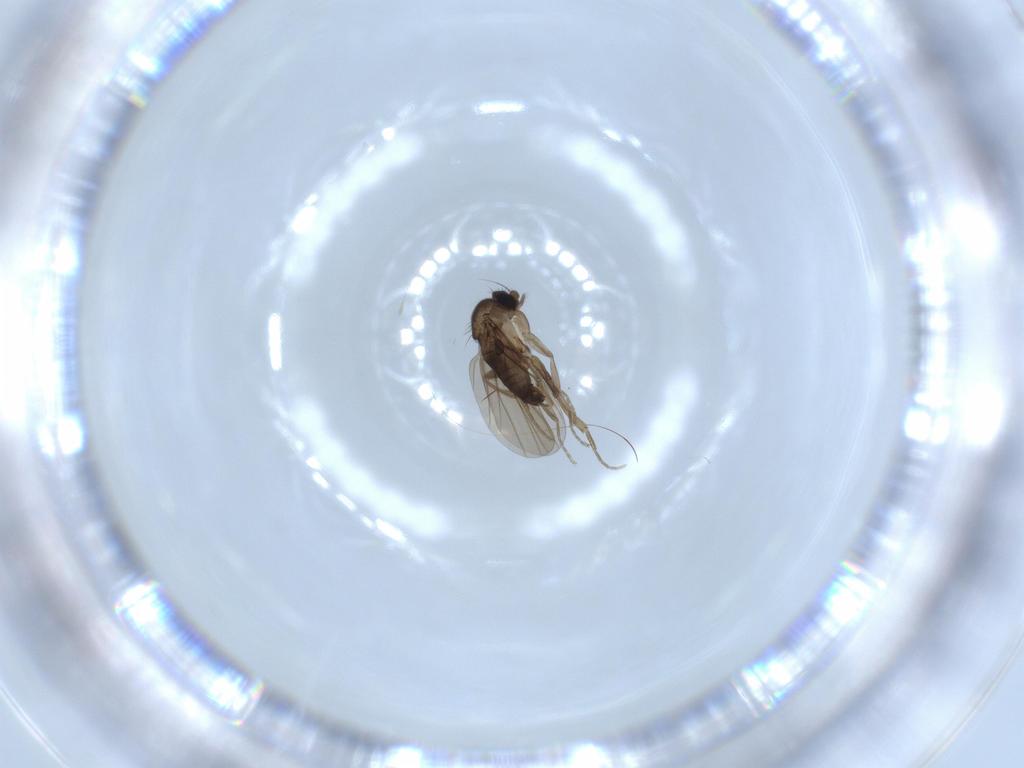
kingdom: Animalia
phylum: Arthropoda
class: Insecta
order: Diptera
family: Phoridae
